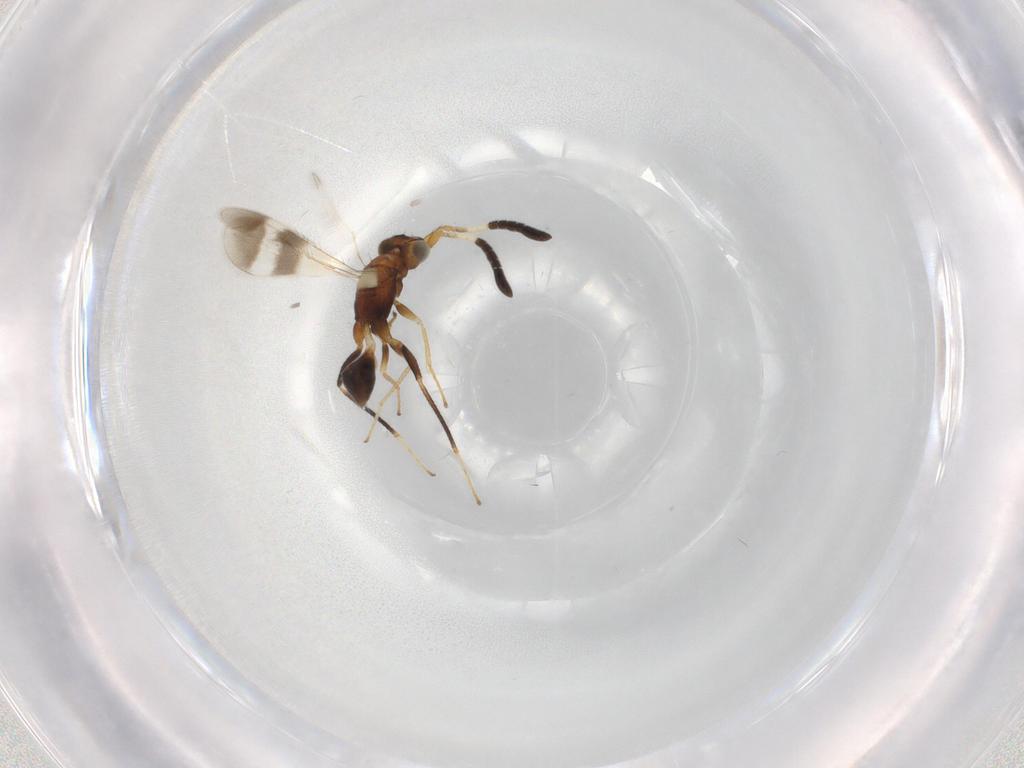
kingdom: Animalia
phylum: Arthropoda
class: Insecta
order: Hymenoptera
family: Mymaridae
